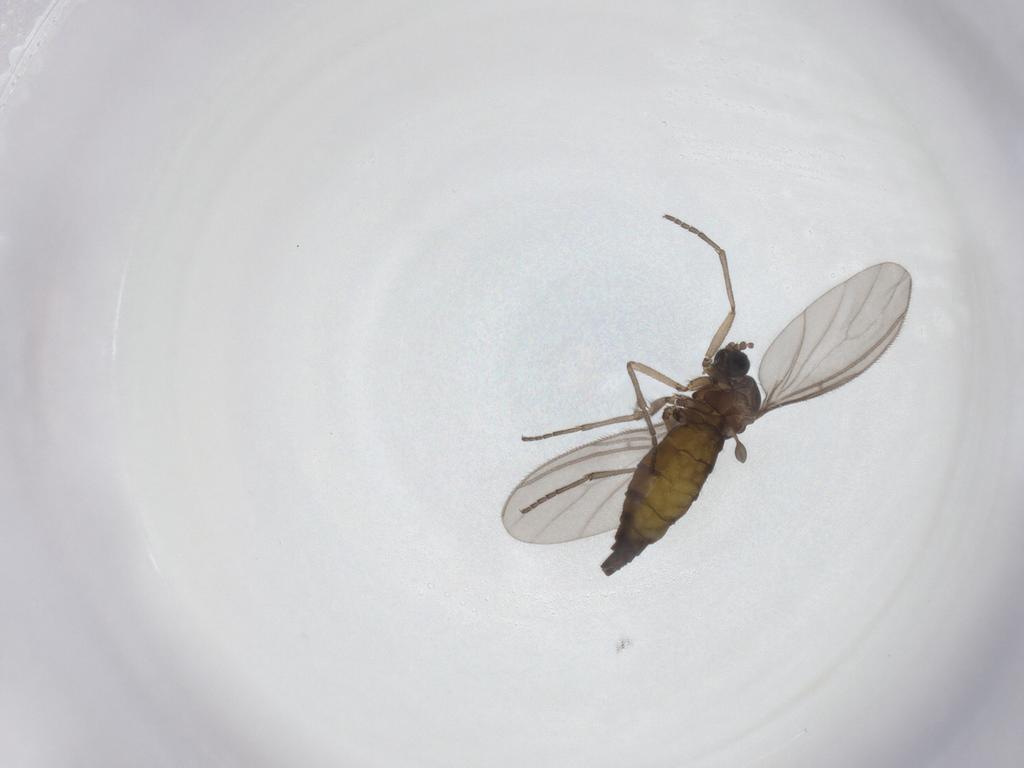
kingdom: Animalia
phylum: Arthropoda
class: Insecta
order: Diptera
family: Sciaridae
